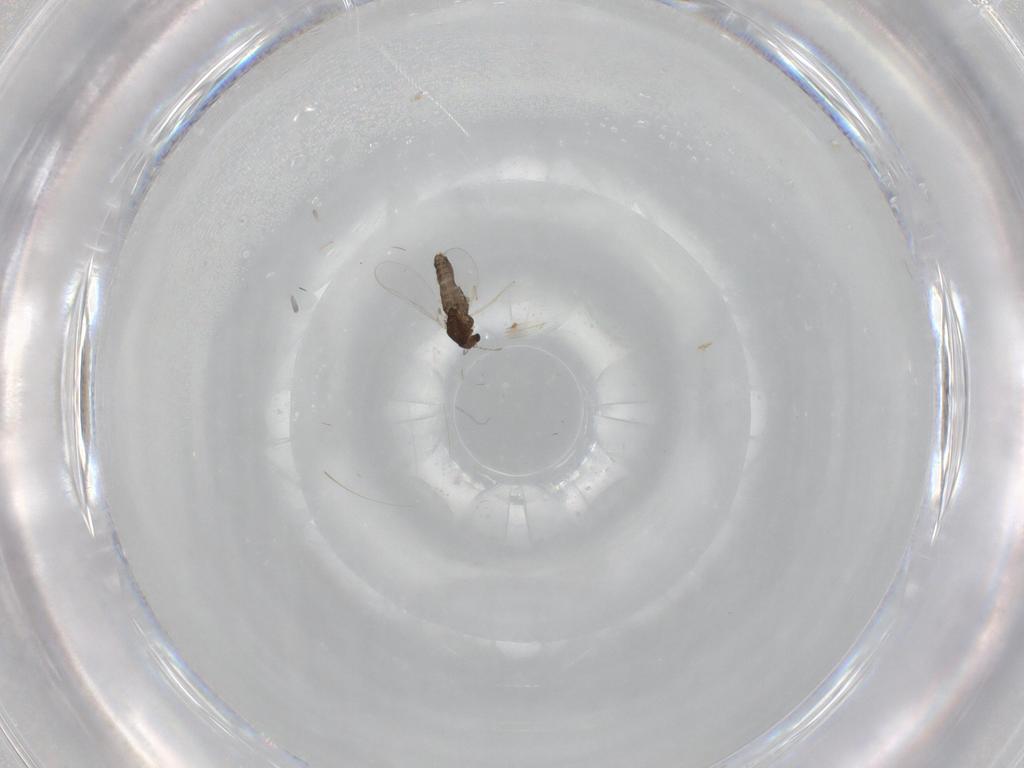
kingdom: Animalia
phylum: Arthropoda
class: Insecta
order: Diptera
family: Chironomidae
